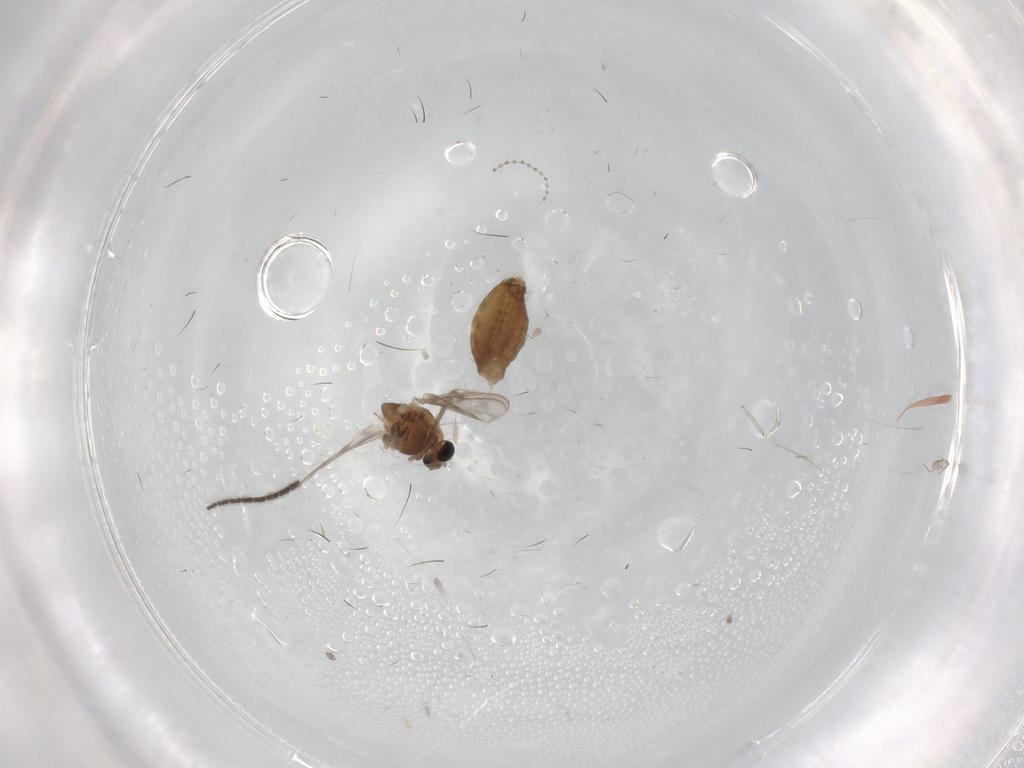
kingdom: Animalia
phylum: Arthropoda
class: Insecta
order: Diptera
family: Chironomidae
